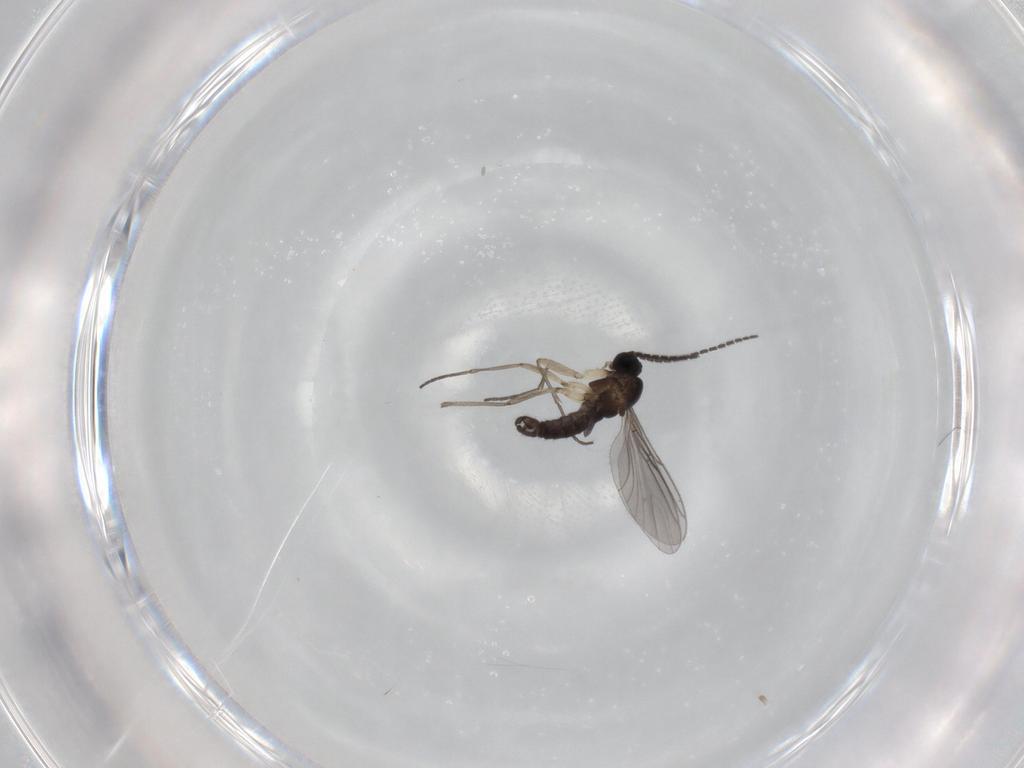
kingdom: Animalia
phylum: Arthropoda
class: Insecta
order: Diptera
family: Sciaridae
